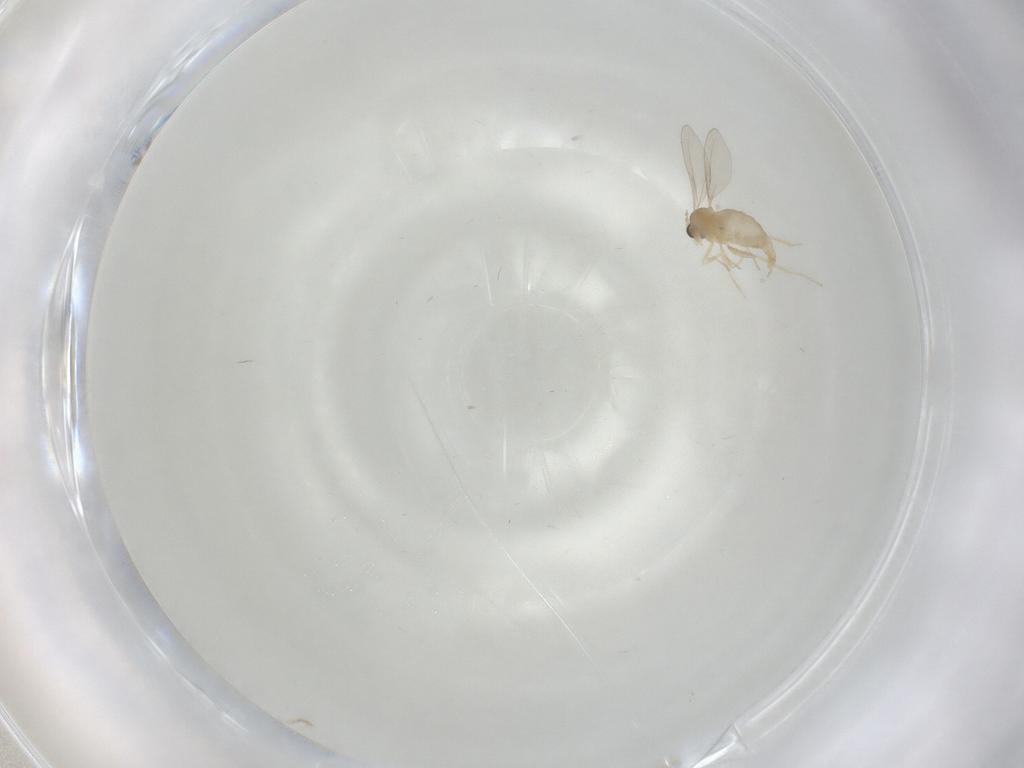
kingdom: Animalia
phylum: Arthropoda
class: Insecta
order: Diptera
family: Cecidomyiidae
